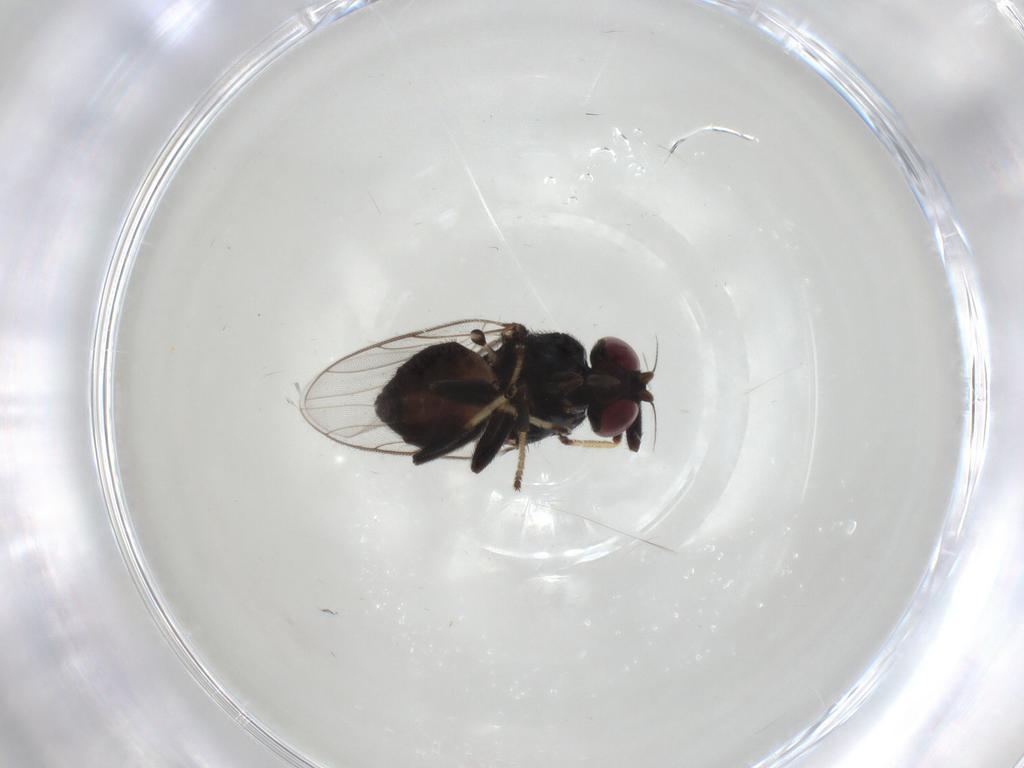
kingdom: Animalia
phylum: Arthropoda
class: Insecta
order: Diptera
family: Chloropidae
